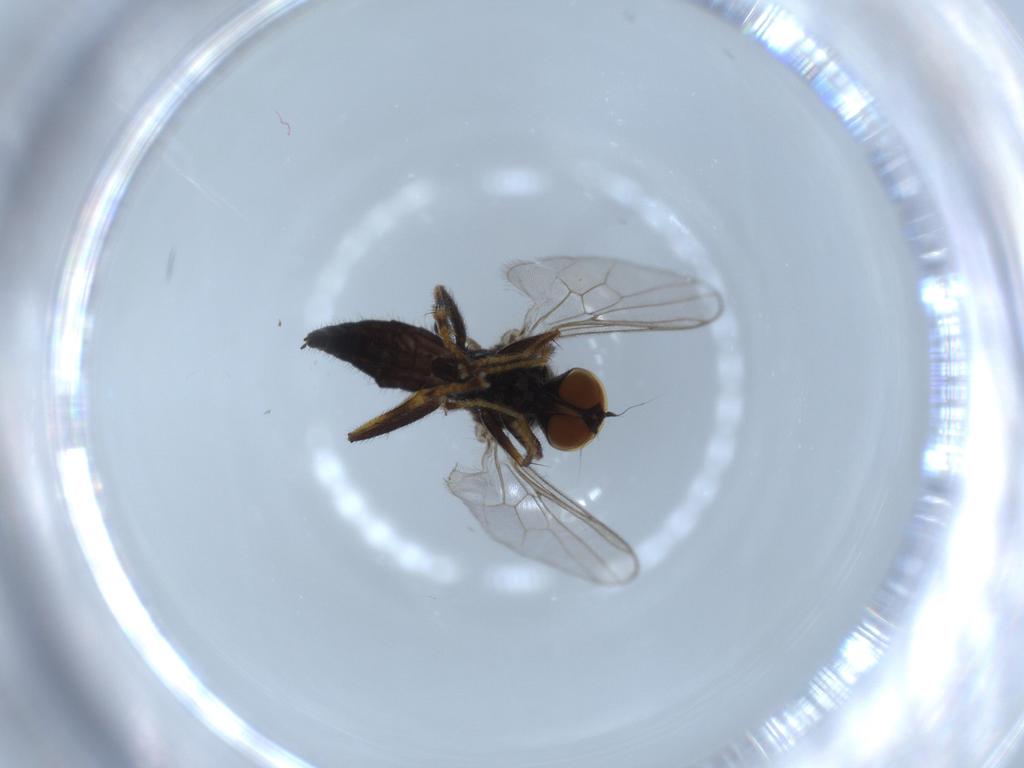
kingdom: Animalia
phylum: Arthropoda
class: Insecta
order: Diptera
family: Hybotidae
